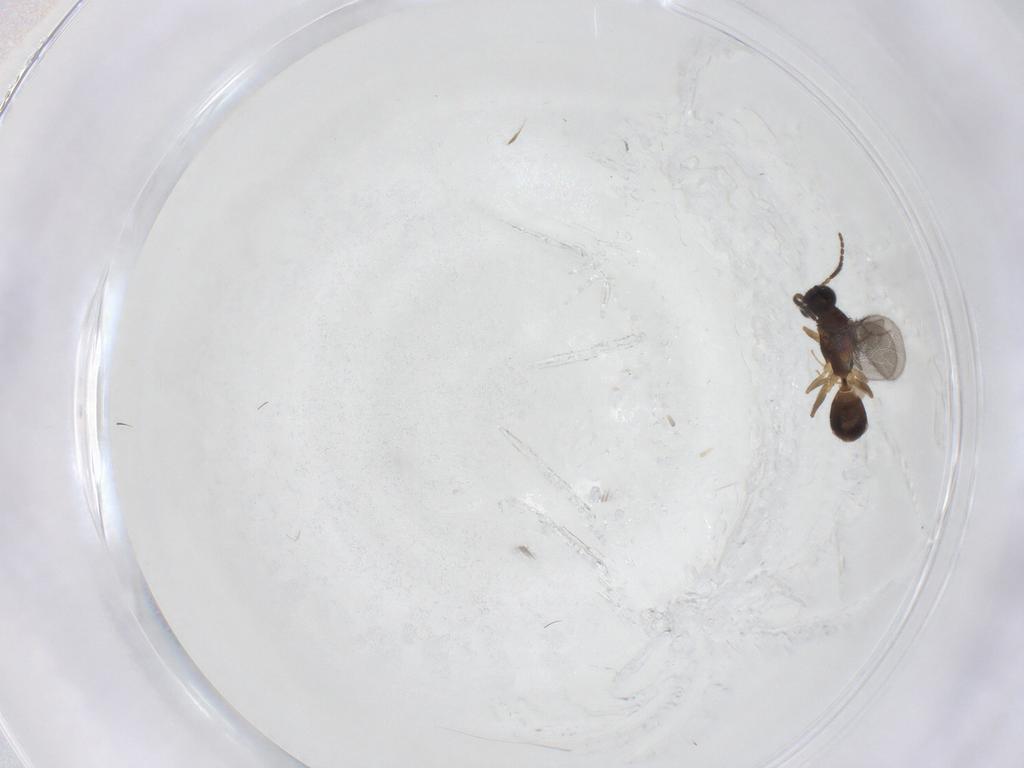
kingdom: Animalia
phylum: Arthropoda
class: Insecta
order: Hymenoptera
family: Bethylidae
